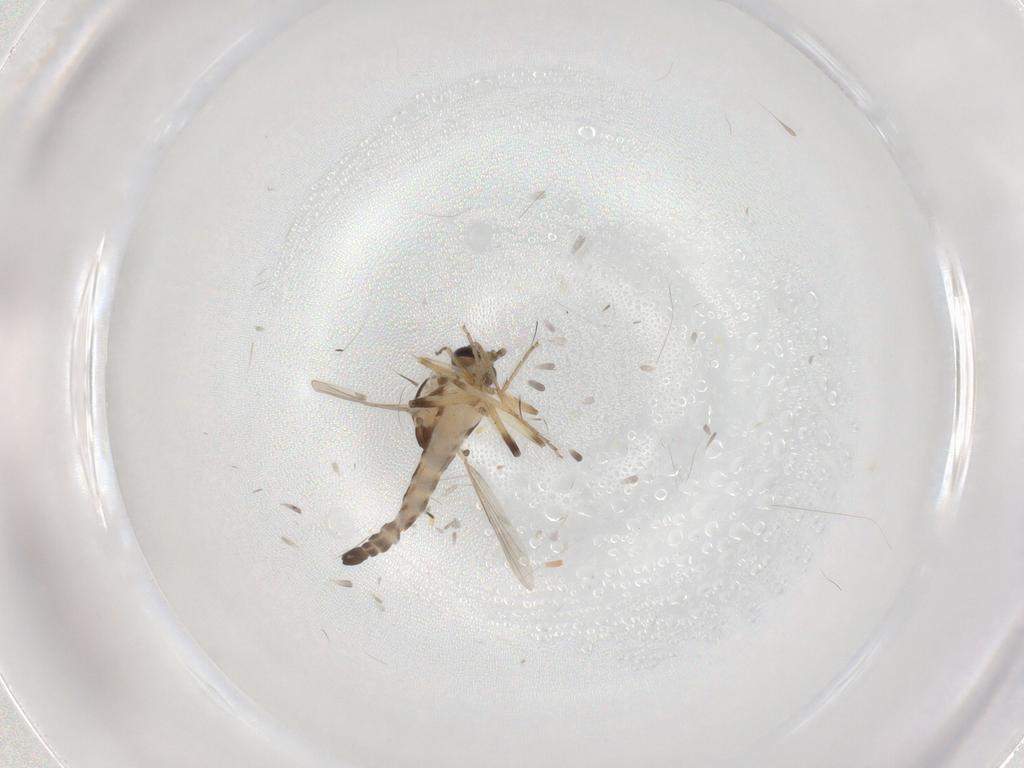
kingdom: Animalia
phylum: Arthropoda
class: Insecta
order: Diptera
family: Ceratopogonidae
